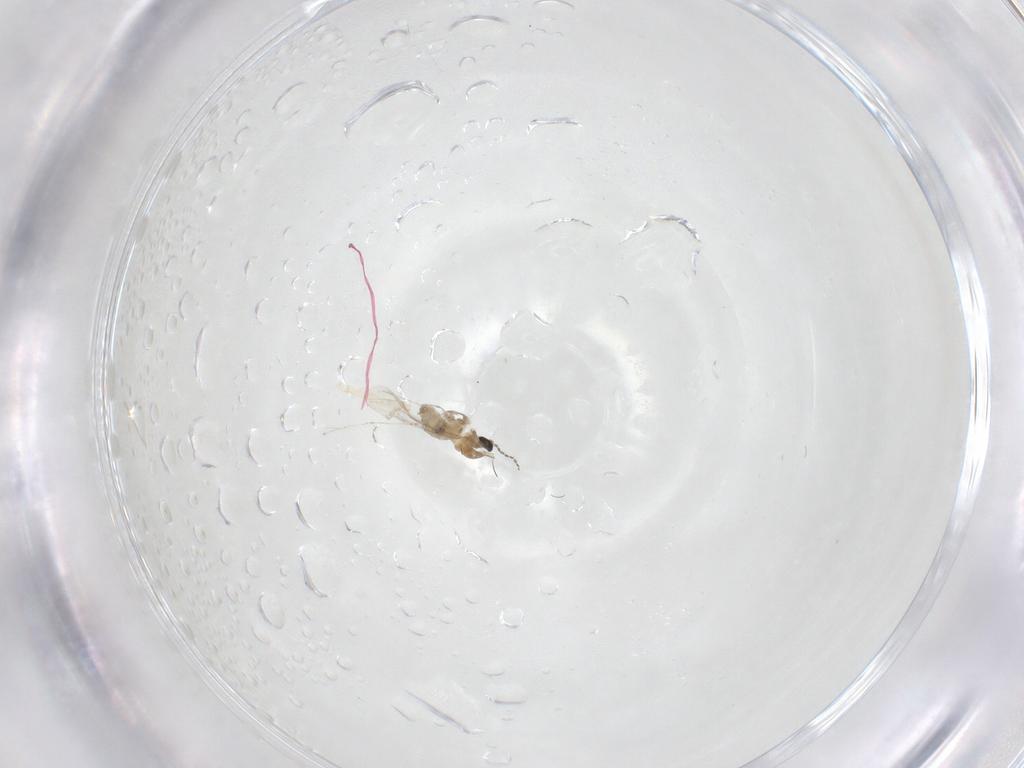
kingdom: Animalia
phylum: Arthropoda
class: Insecta
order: Diptera
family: Cecidomyiidae
